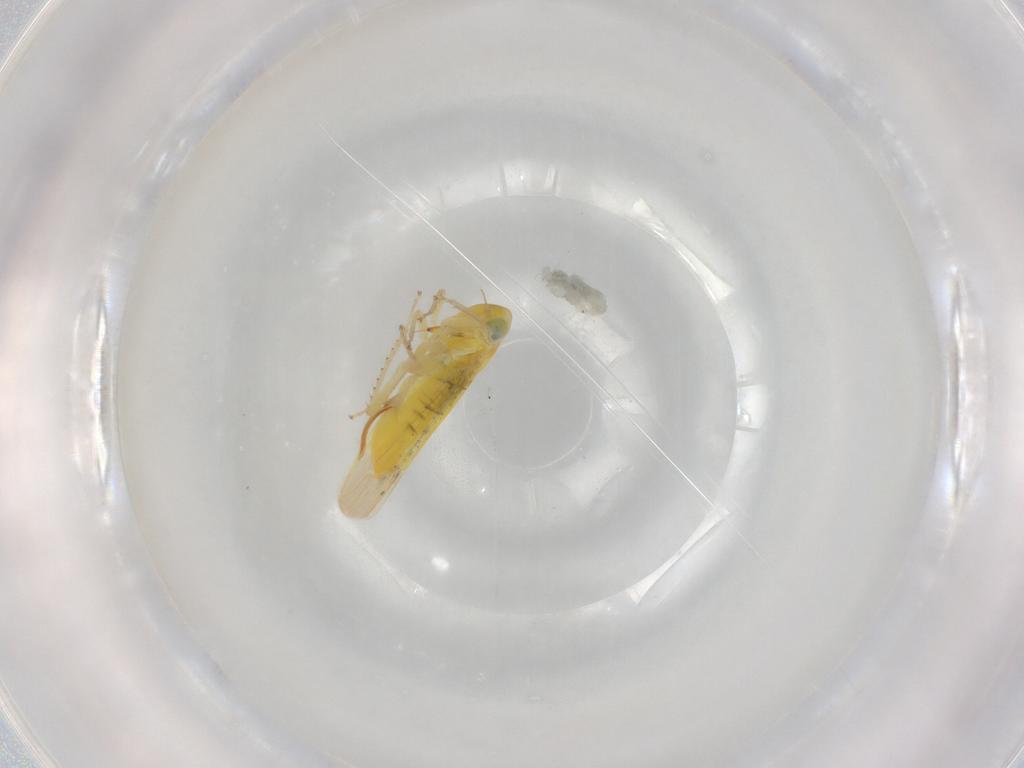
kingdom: Animalia
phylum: Arthropoda
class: Insecta
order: Hemiptera
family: Cicadellidae
